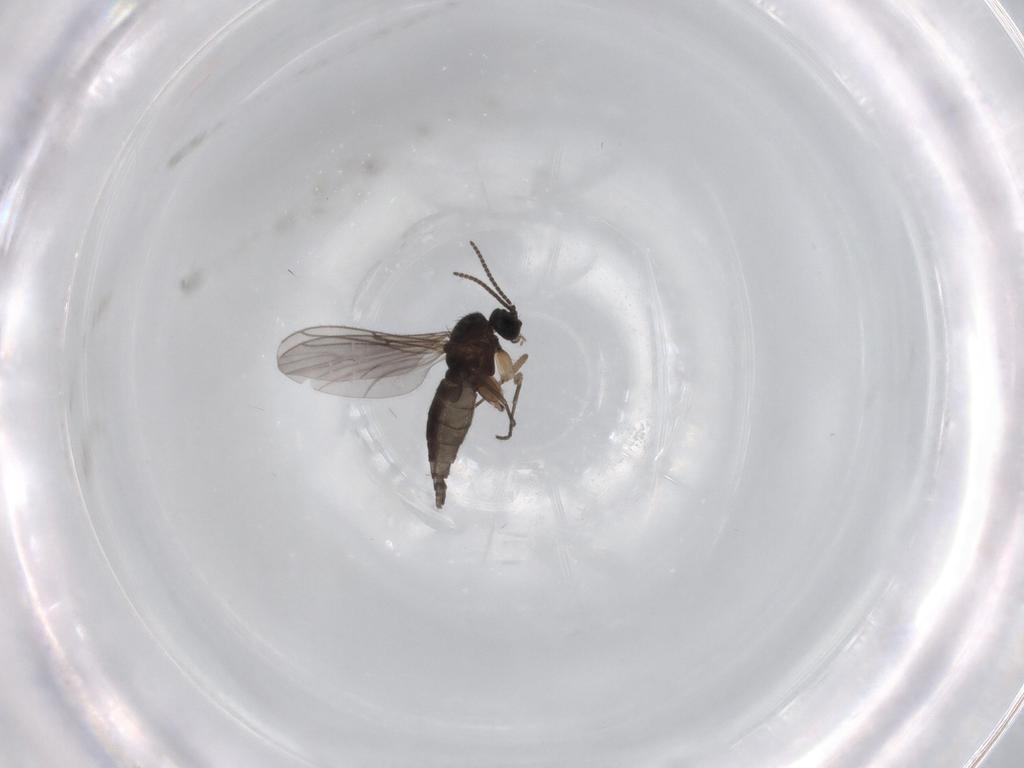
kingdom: Animalia
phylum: Arthropoda
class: Insecta
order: Diptera
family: Sciaridae
